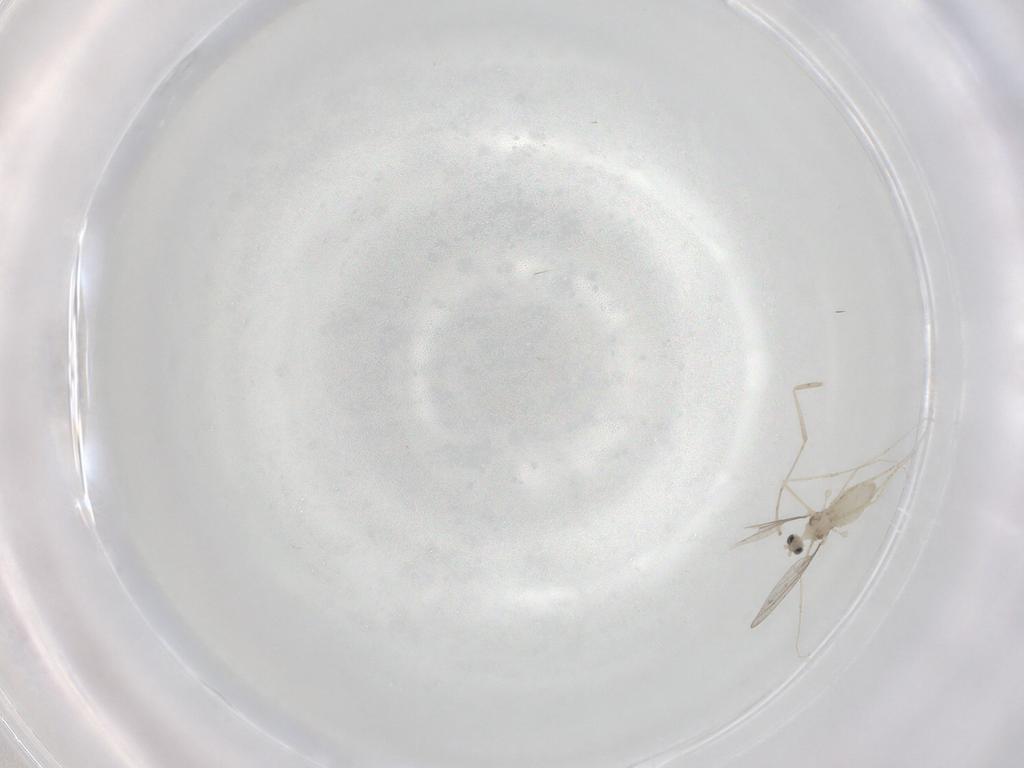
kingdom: Animalia
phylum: Arthropoda
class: Insecta
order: Diptera
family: Cecidomyiidae
